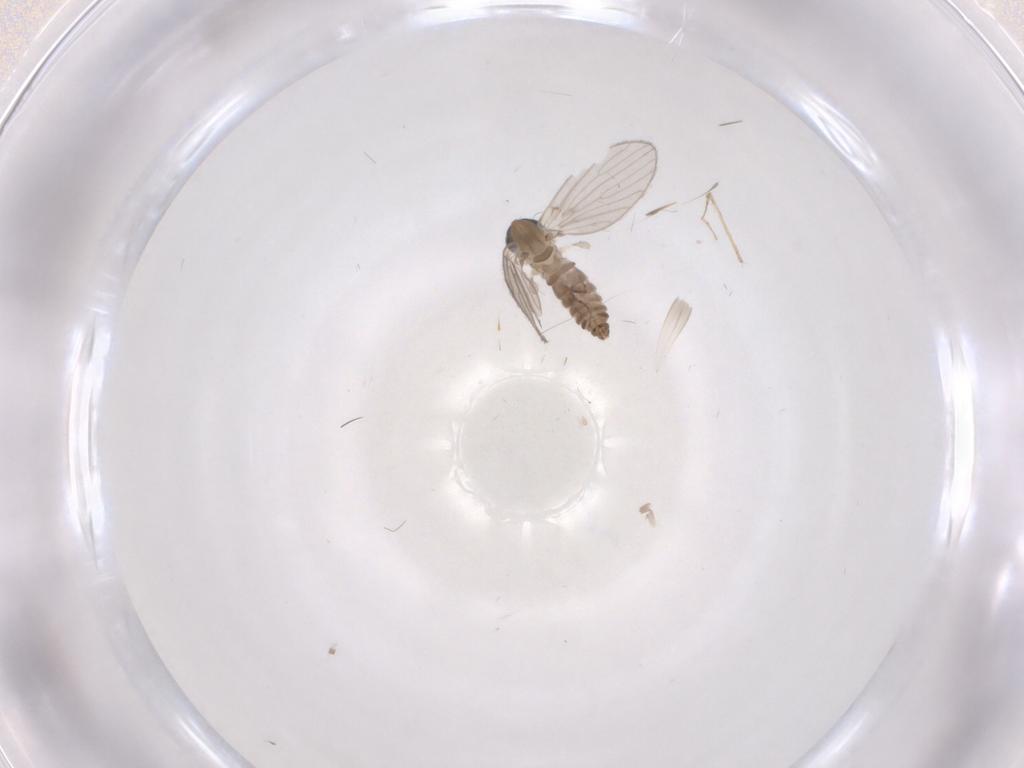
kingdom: Animalia
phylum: Arthropoda
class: Insecta
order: Diptera
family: Psychodidae
